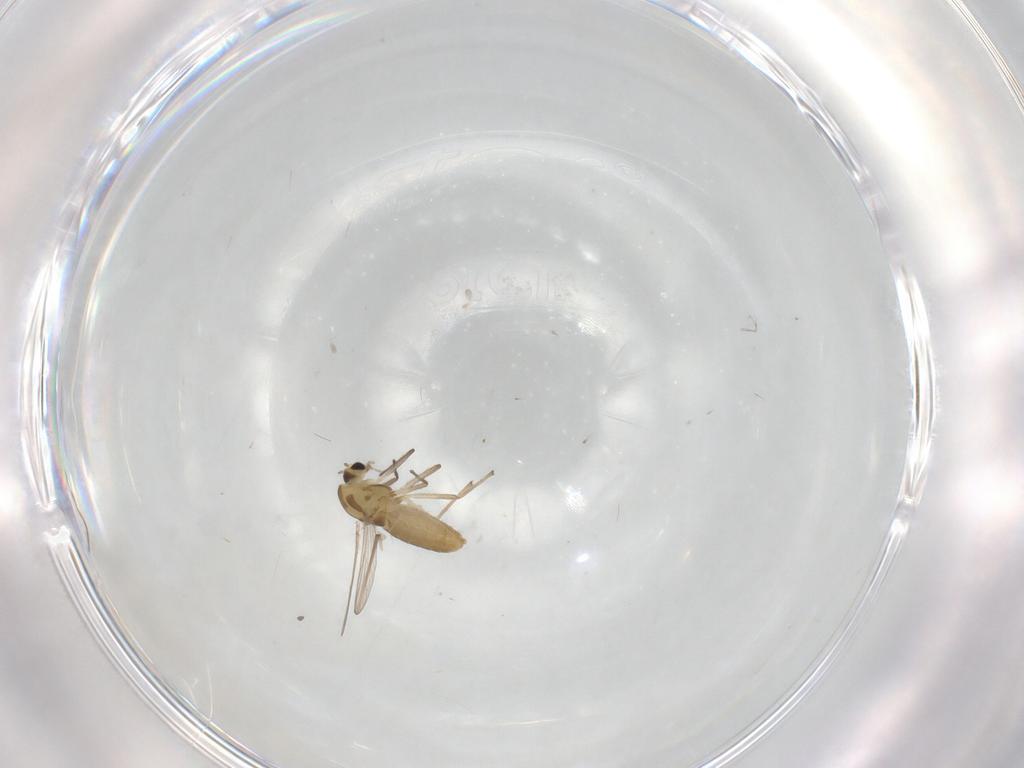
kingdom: Animalia
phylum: Arthropoda
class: Insecta
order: Diptera
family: Chironomidae
